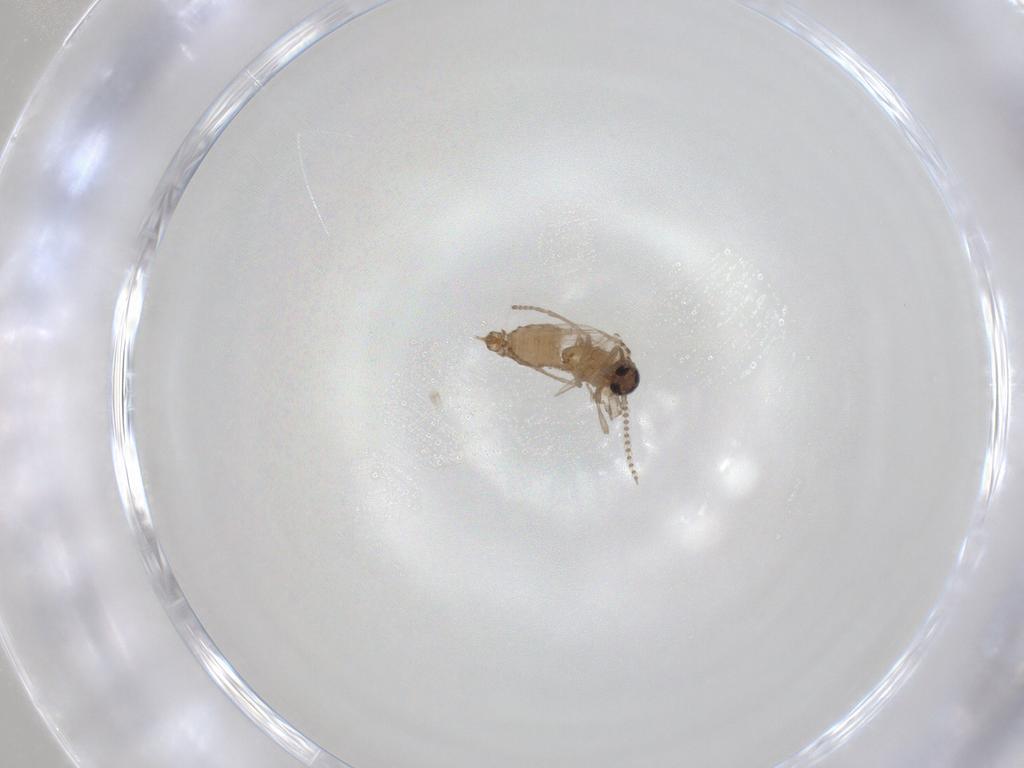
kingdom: Animalia
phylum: Arthropoda
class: Insecta
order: Diptera
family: Psychodidae
